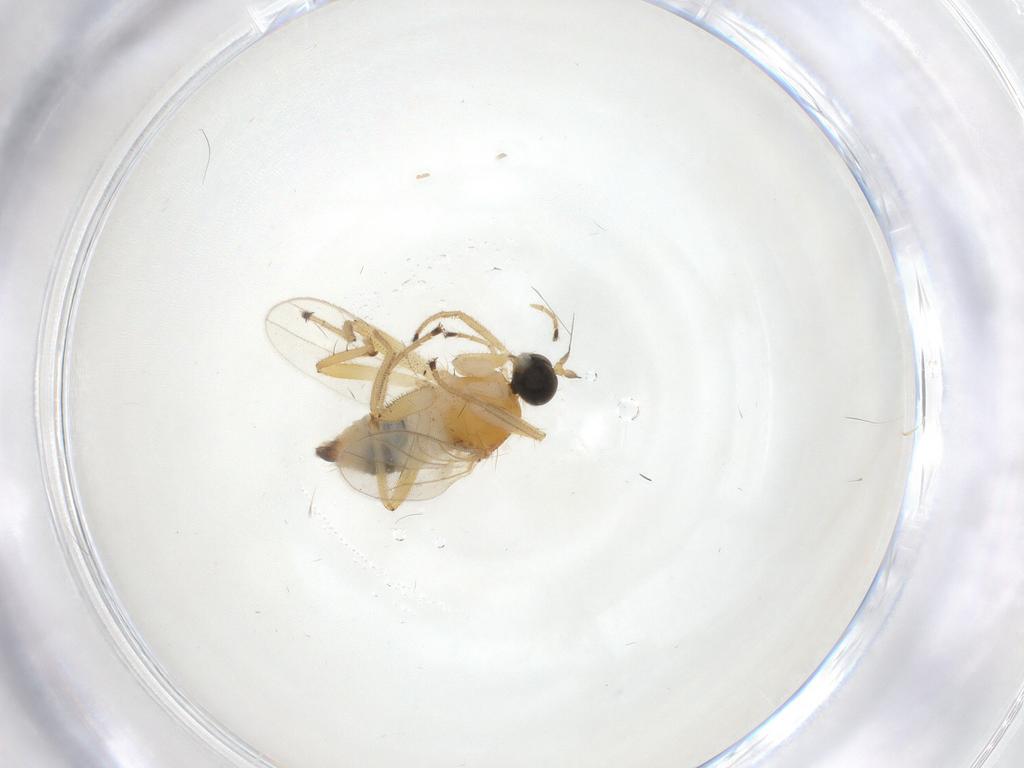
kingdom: Animalia
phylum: Arthropoda
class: Insecta
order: Diptera
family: Hybotidae
